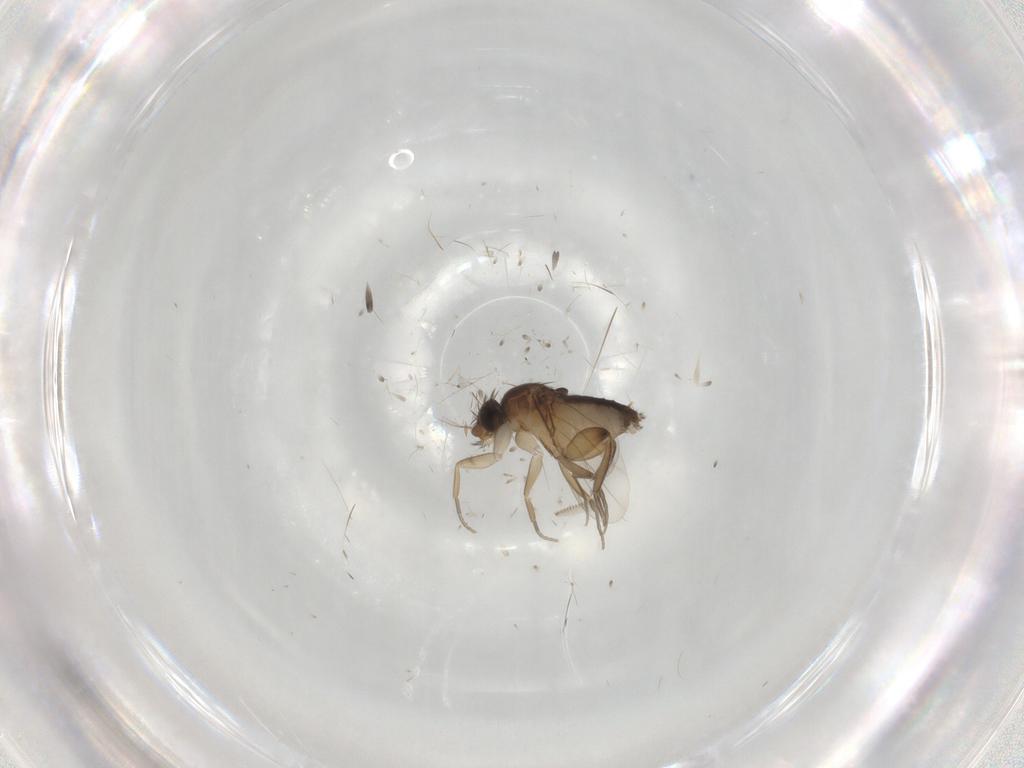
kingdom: Animalia
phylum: Arthropoda
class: Insecta
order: Diptera
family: Phoridae
